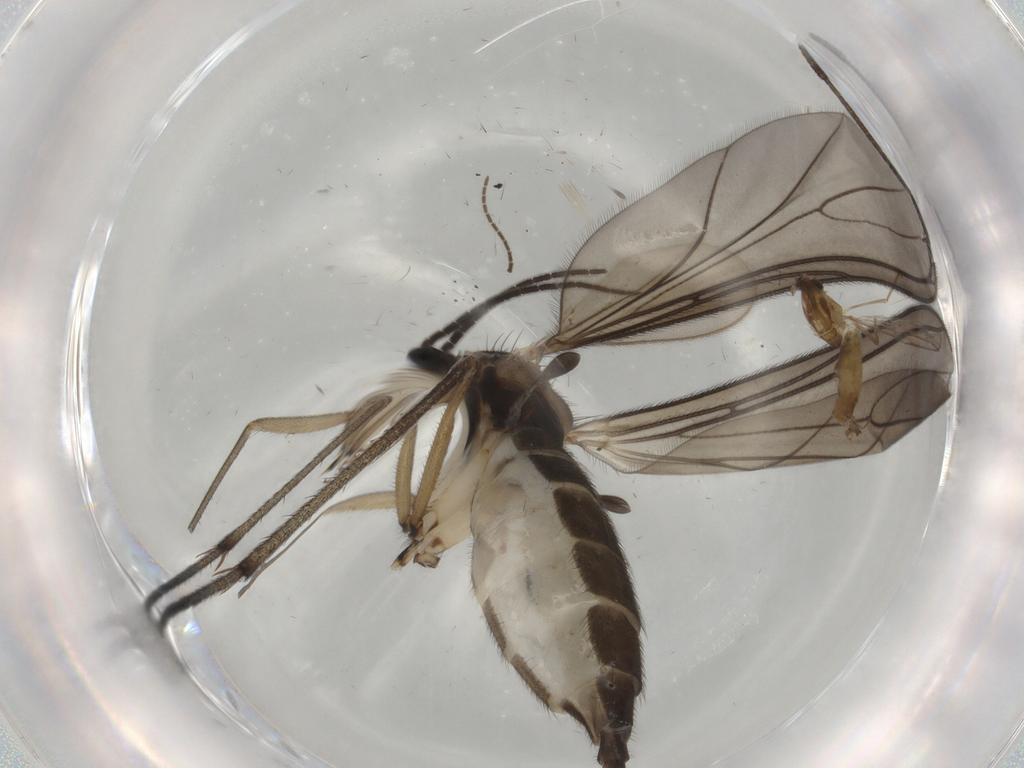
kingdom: Animalia
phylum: Arthropoda
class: Insecta
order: Diptera
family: Sciaridae
